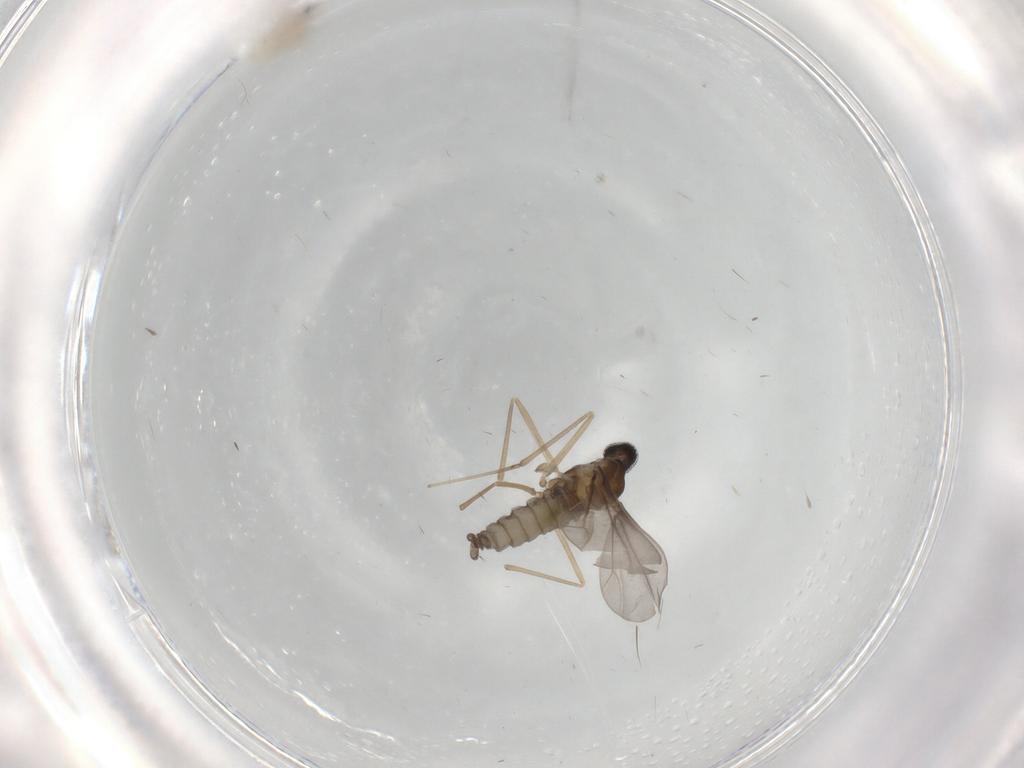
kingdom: Animalia
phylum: Arthropoda
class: Insecta
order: Diptera
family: Cecidomyiidae
